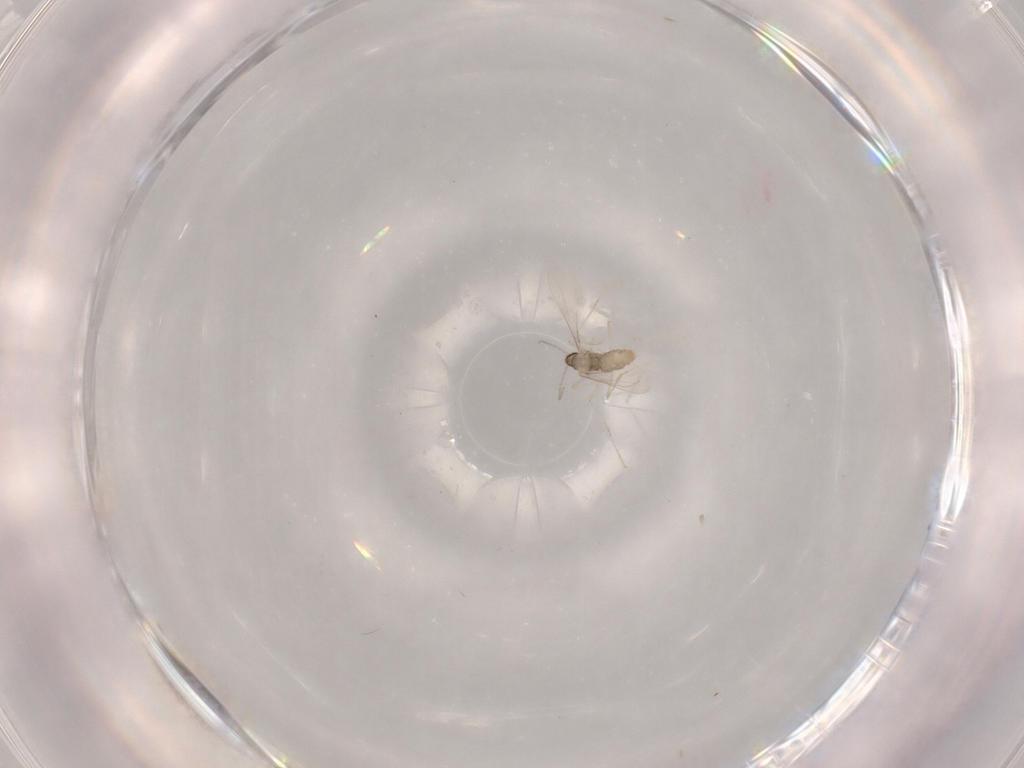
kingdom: Animalia
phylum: Arthropoda
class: Insecta
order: Diptera
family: Cecidomyiidae
